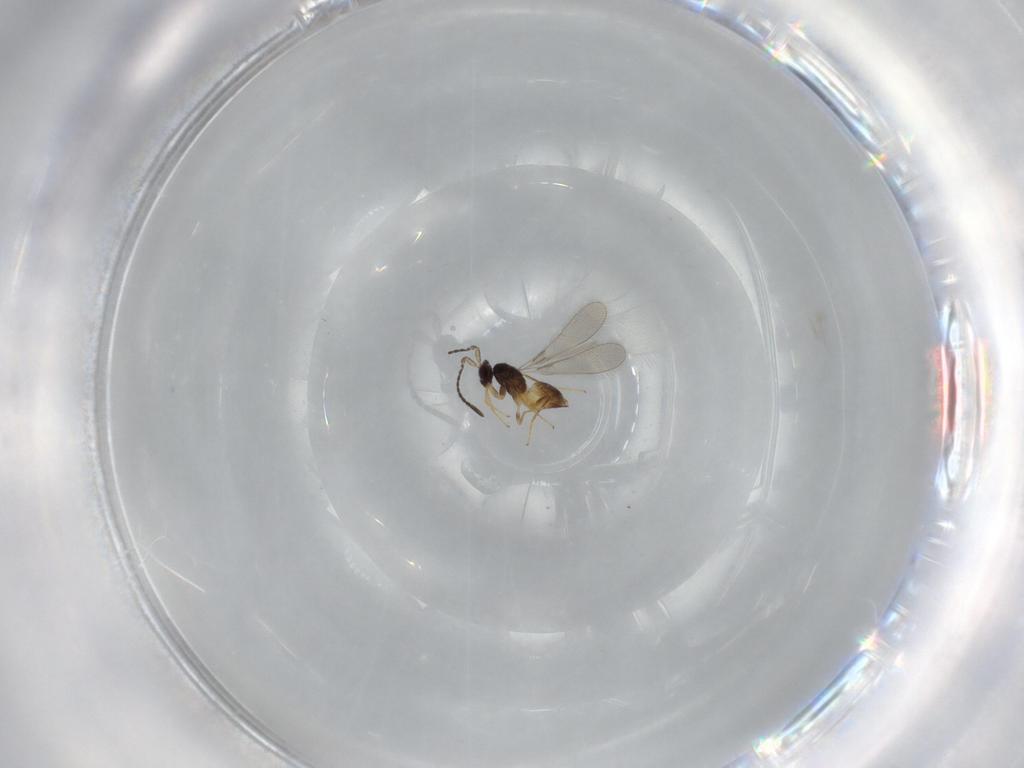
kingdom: Animalia
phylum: Arthropoda
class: Insecta
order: Hymenoptera
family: Mymaridae
